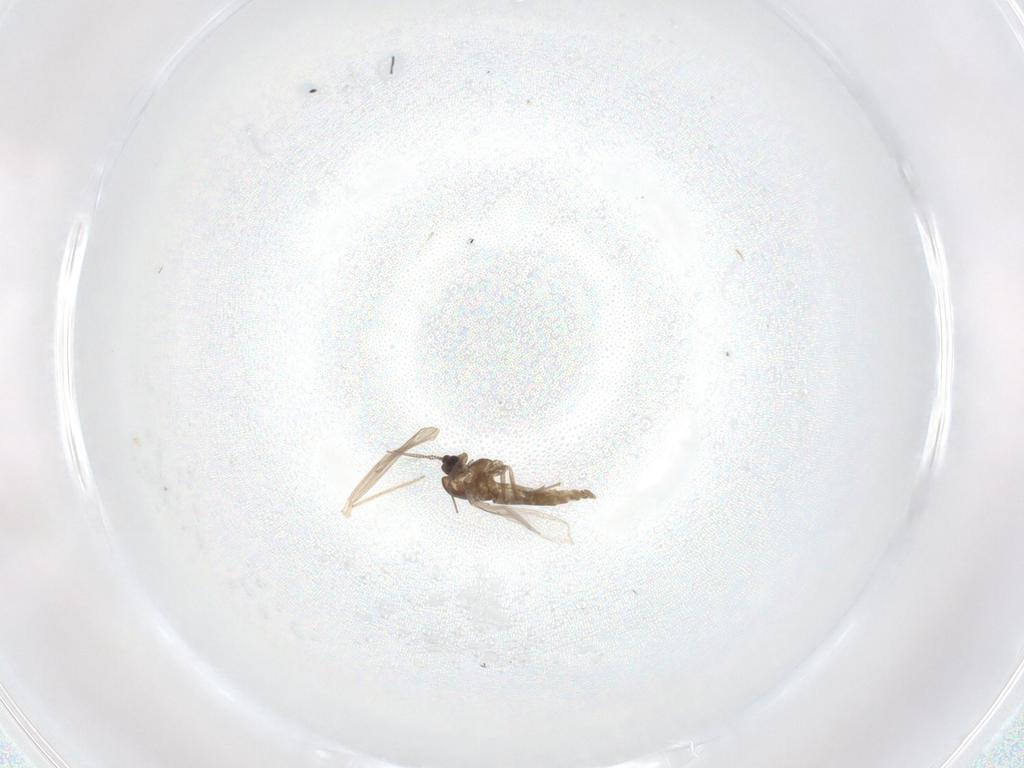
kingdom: Animalia
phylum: Arthropoda
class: Insecta
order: Diptera
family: Chironomidae
